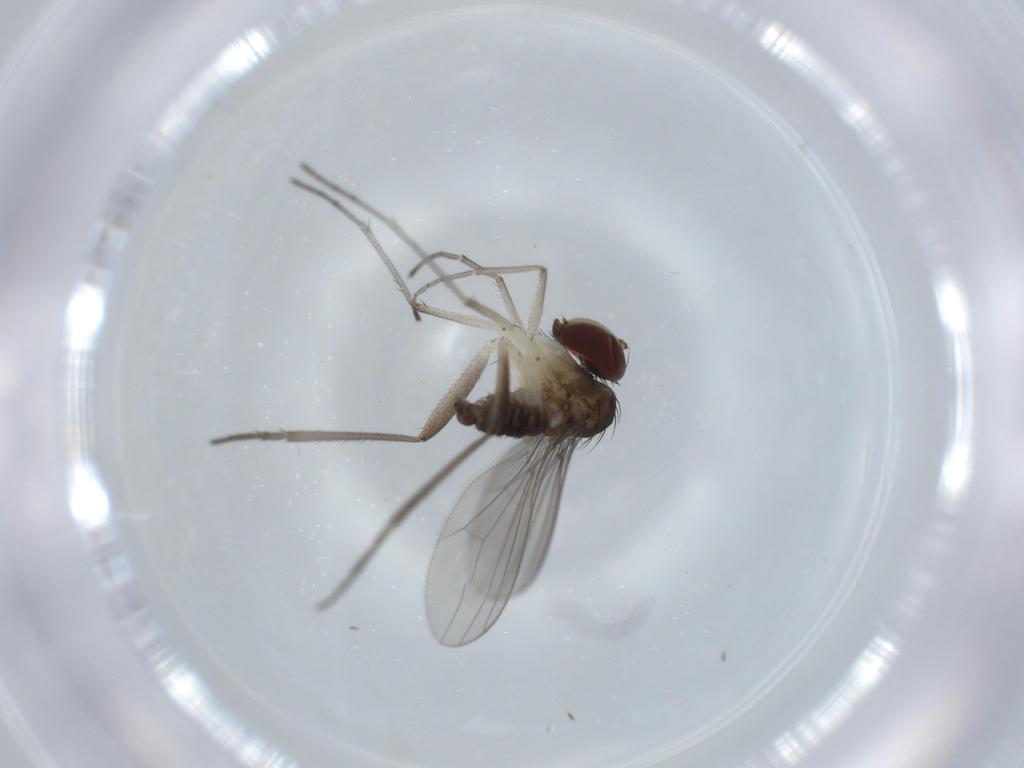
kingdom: Animalia
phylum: Arthropoda
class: Insecta
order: Diptera
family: Dolichopodidae
